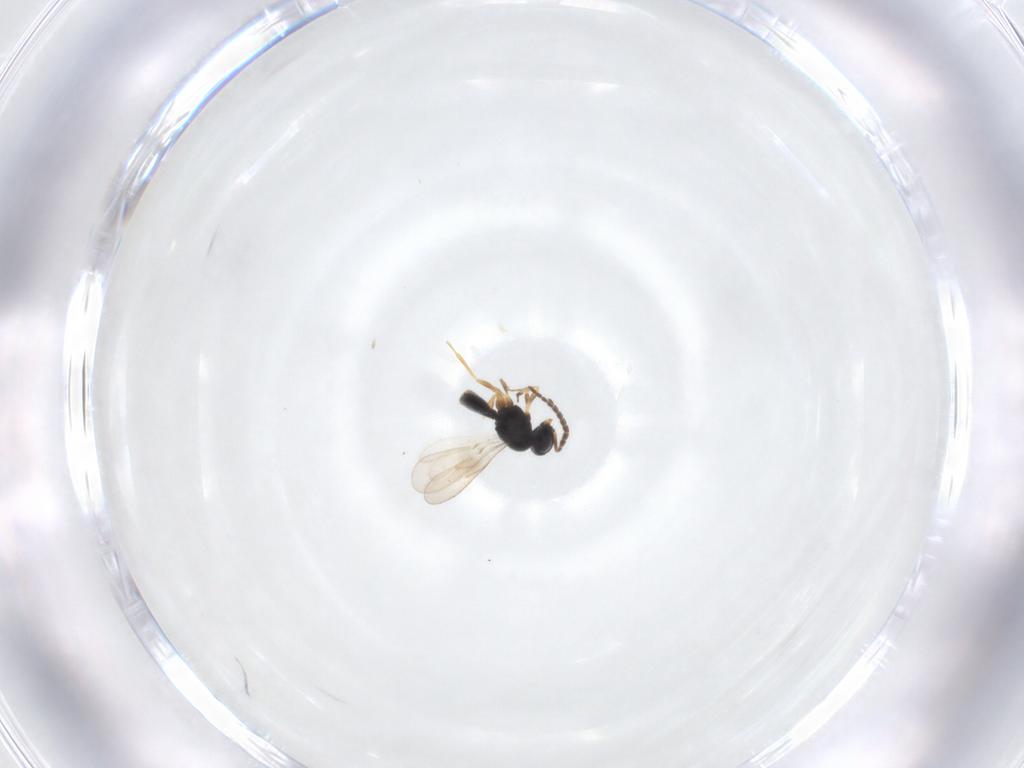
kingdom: Animalia
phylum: Arthropoda
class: Insecta
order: Hymenoptera
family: Scelionidae
